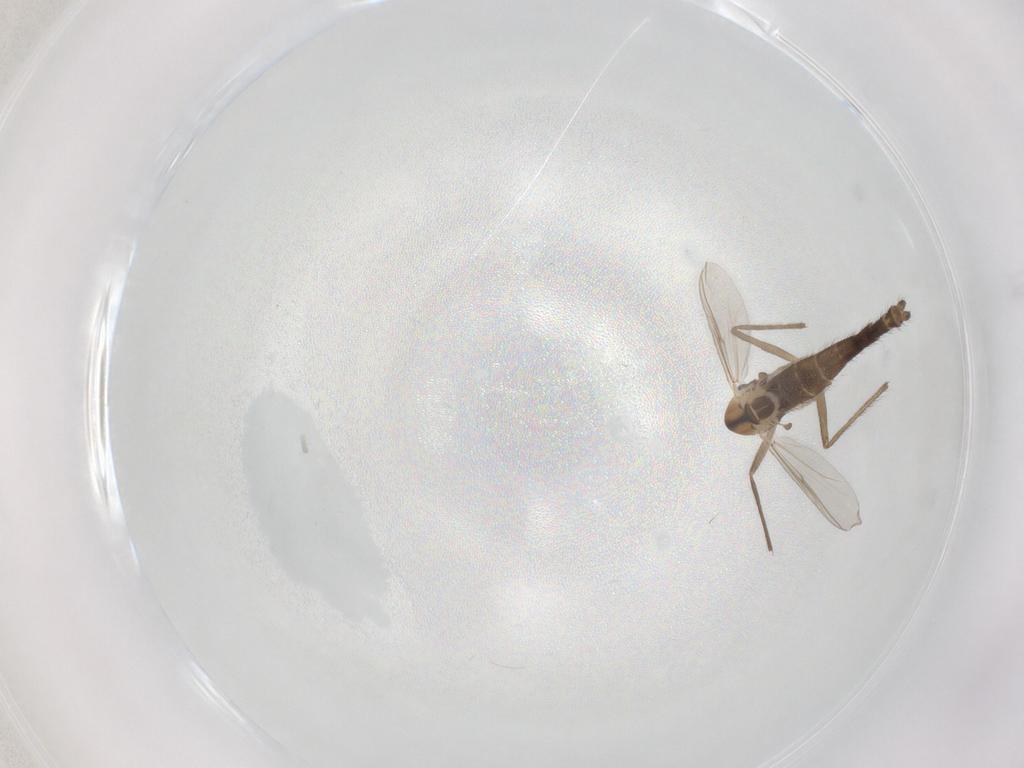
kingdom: Animalia
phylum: Arthropoda
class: Insecta
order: Diptera
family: Chironomidae
